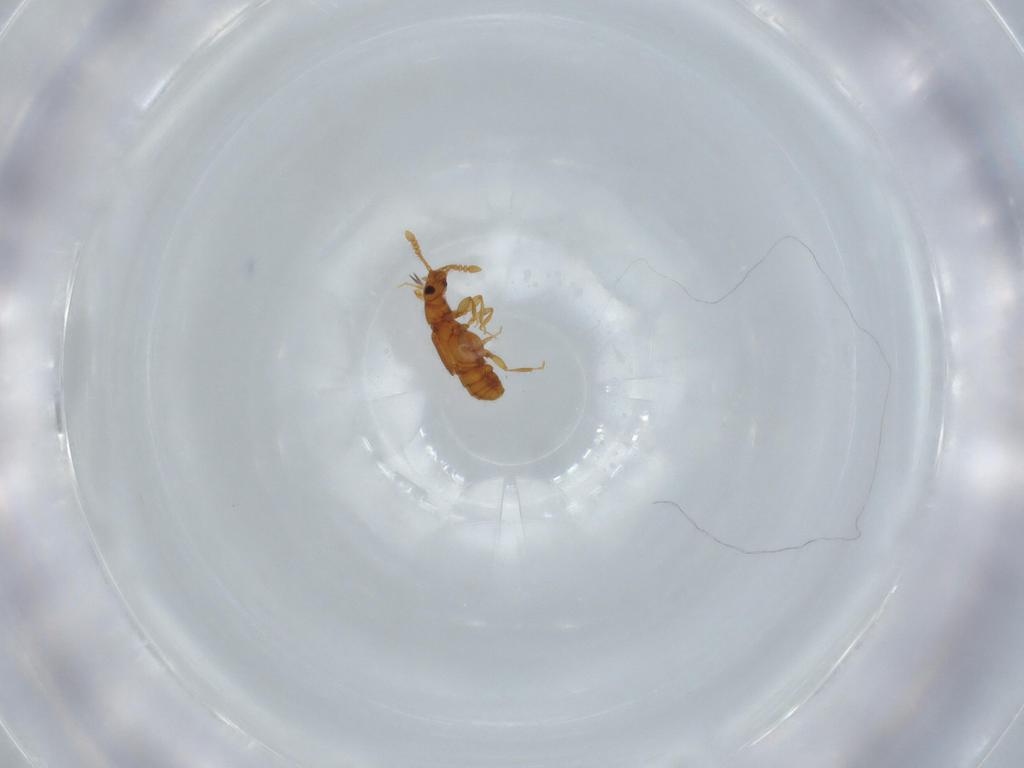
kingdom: Animalia
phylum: Arthropoda
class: Insecta
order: Coleoptera
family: Staphylinidae
